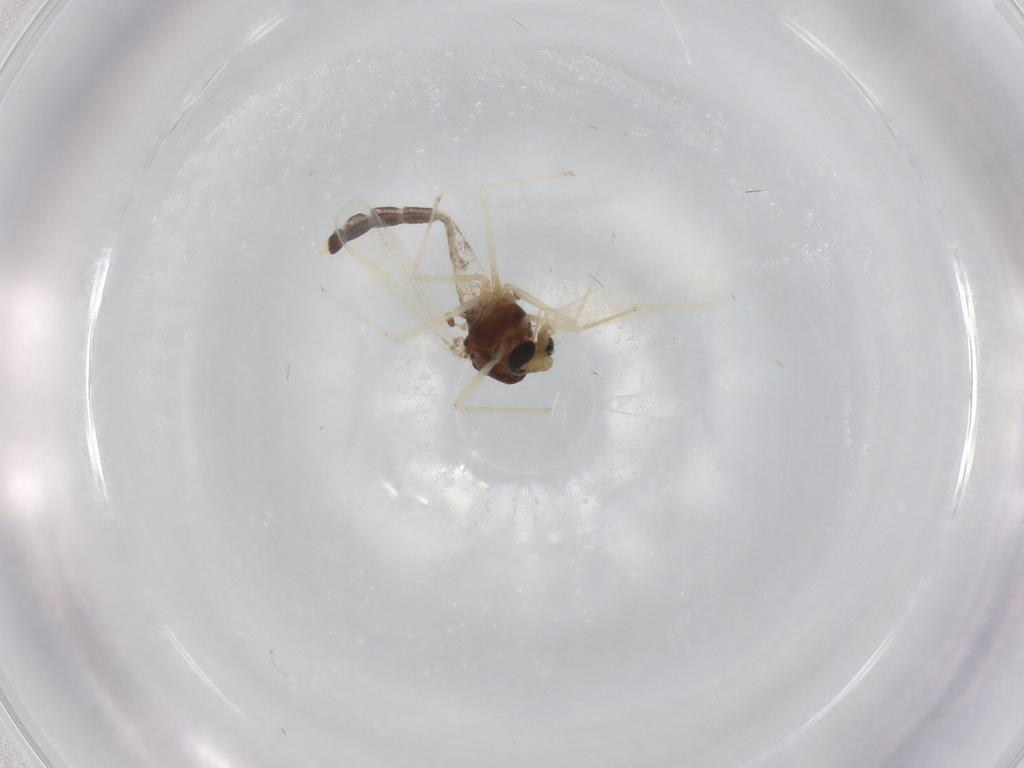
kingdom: Animalia
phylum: Arthropoda
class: Insecta
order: Diptera
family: Chironomidae
